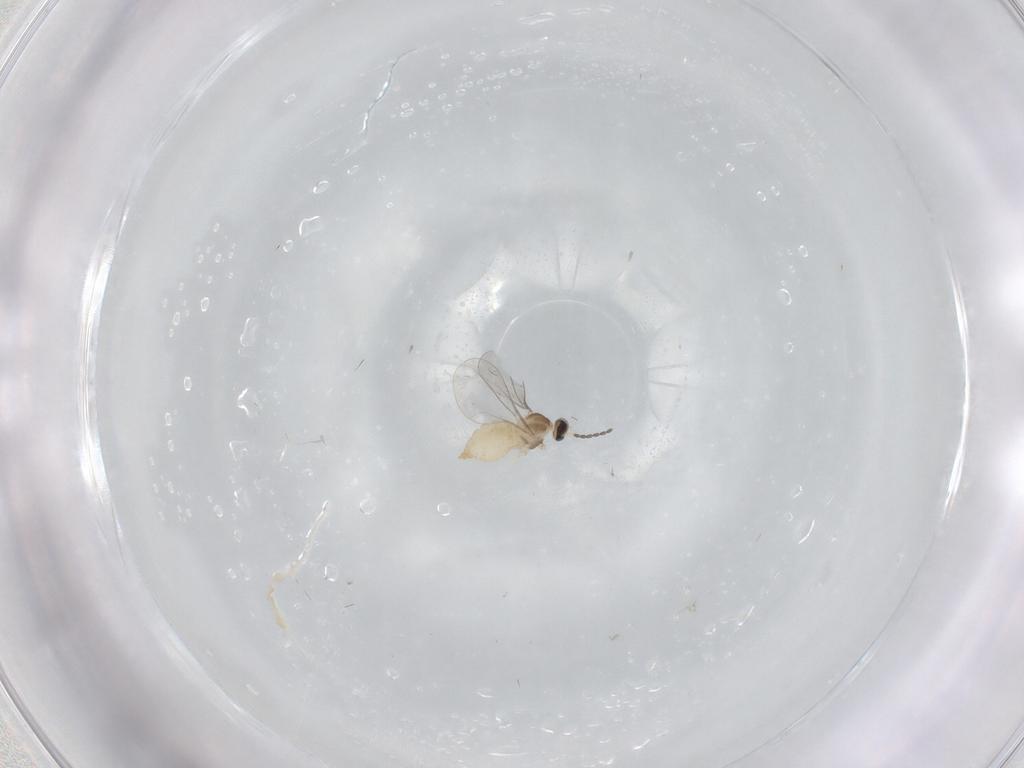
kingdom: Animalia
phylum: Arthropoda
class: Insecta
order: Diptera
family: Cecidomyiidae
